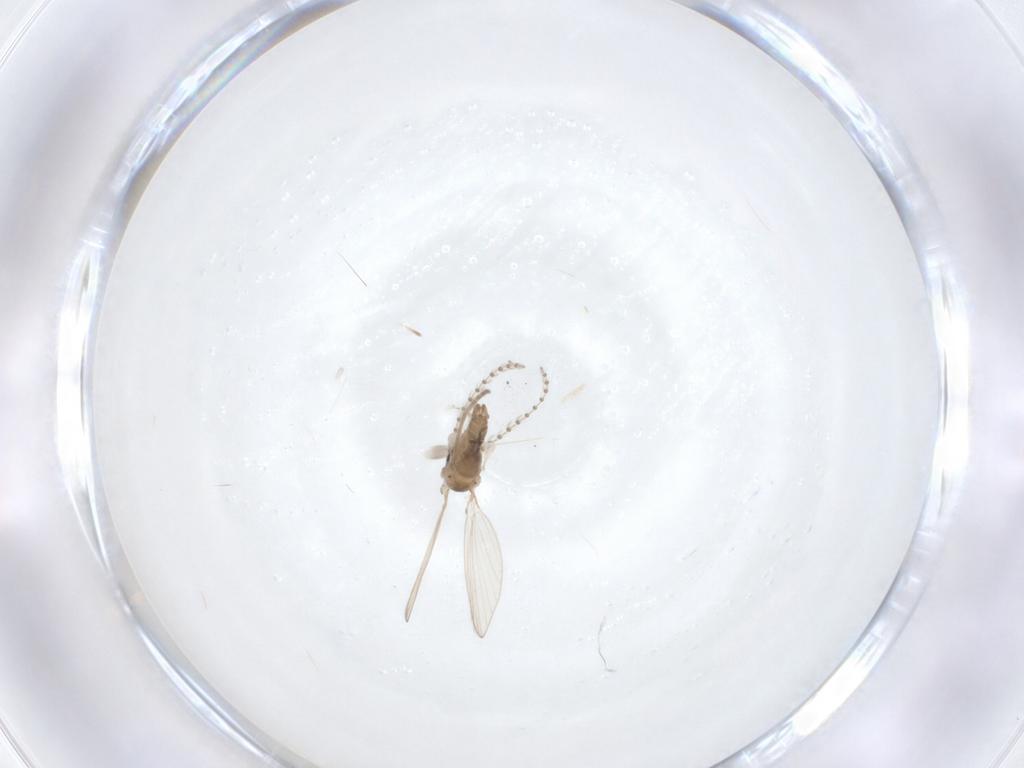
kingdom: Animalia
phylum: Arthropoda
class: Insecta
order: Diptera
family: Psychodidae
